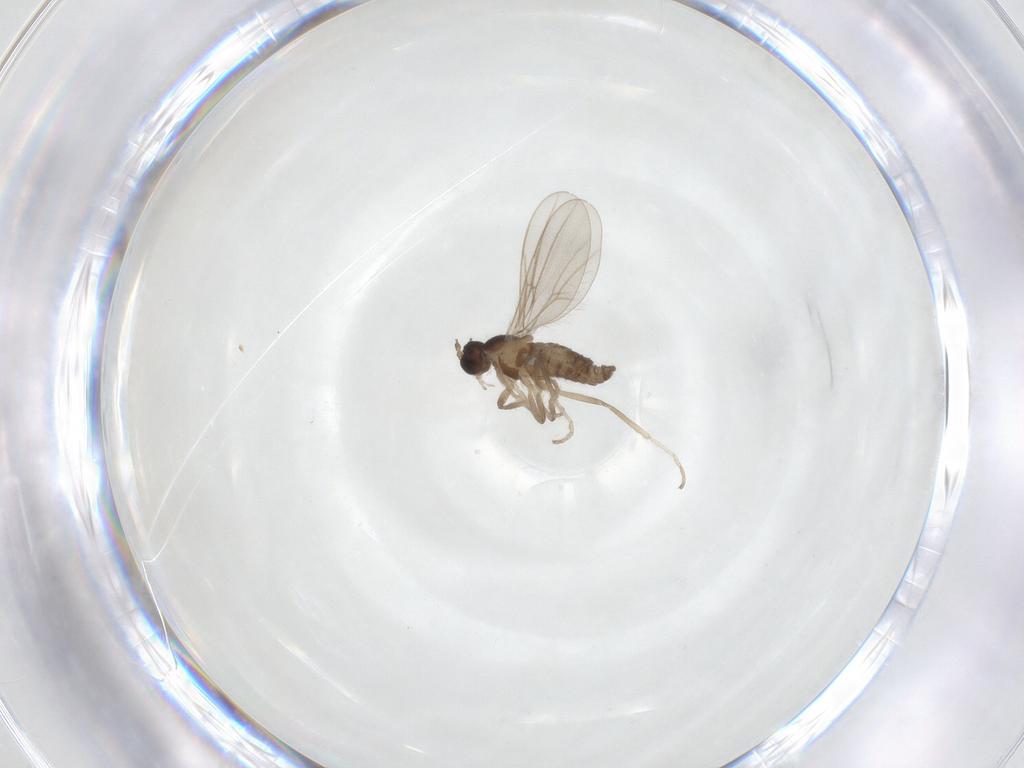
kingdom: Animalia
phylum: Arthropoda
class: Insecta
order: Diptera
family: Cecidomyiidae
